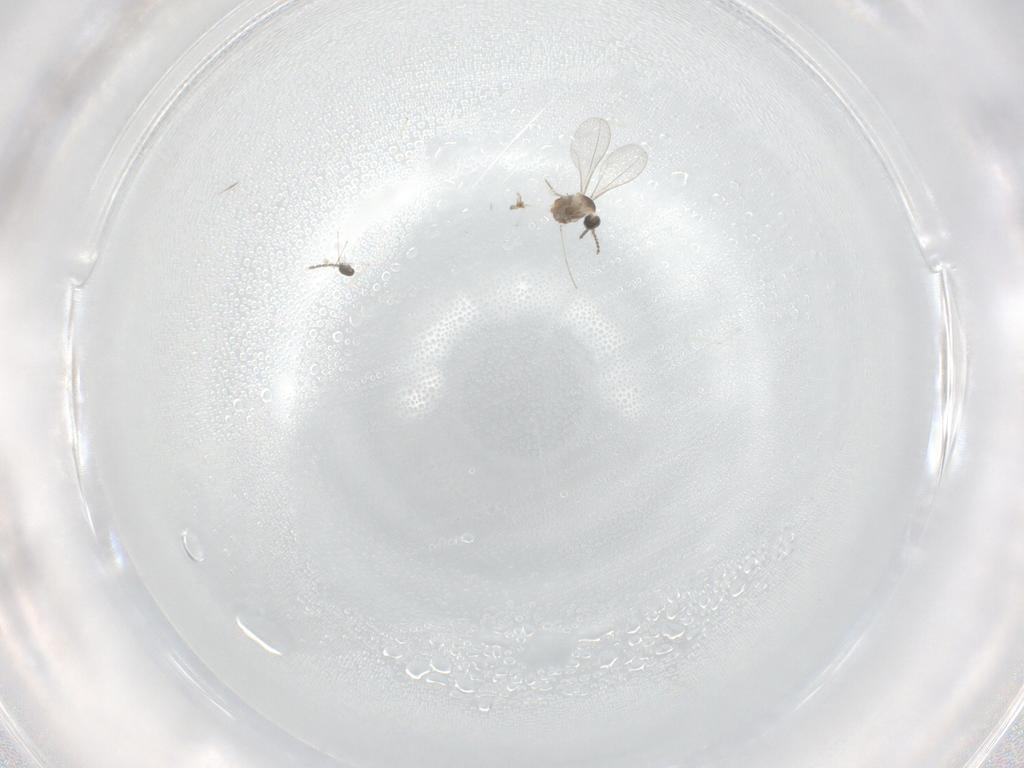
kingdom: Animalia
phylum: Arthropoda
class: Insecta
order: Diptera
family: Cecidomyiidae
